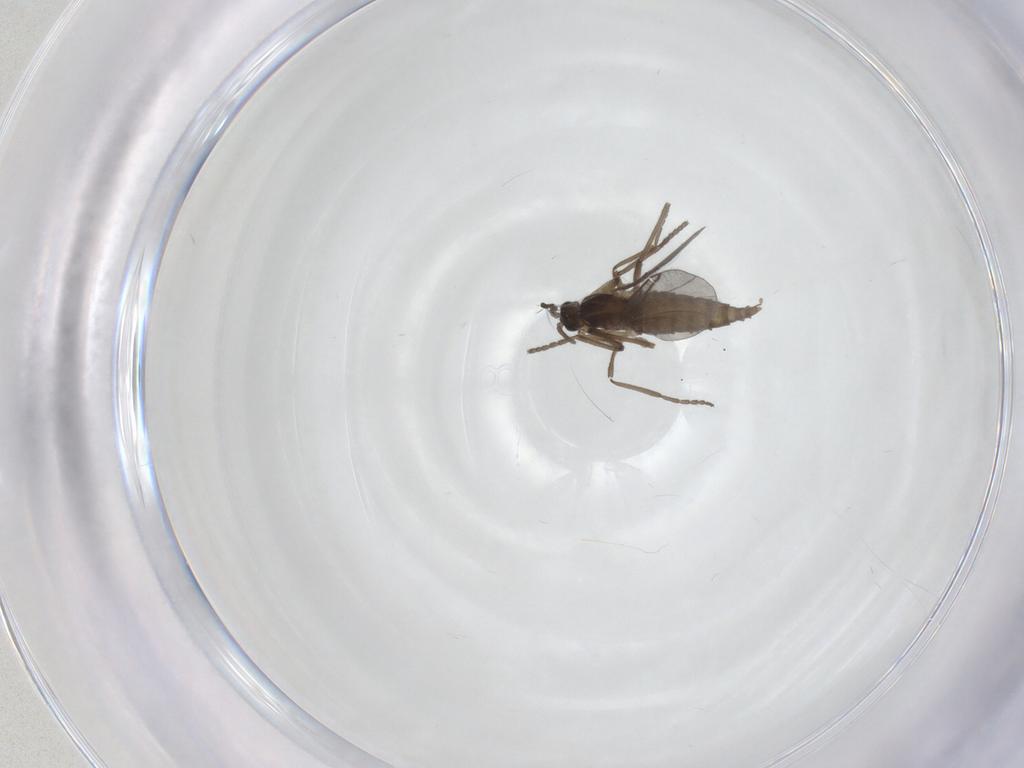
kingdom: Animalia
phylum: Arthropoda
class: Insecta
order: Diptera
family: Cecidomyiidae
